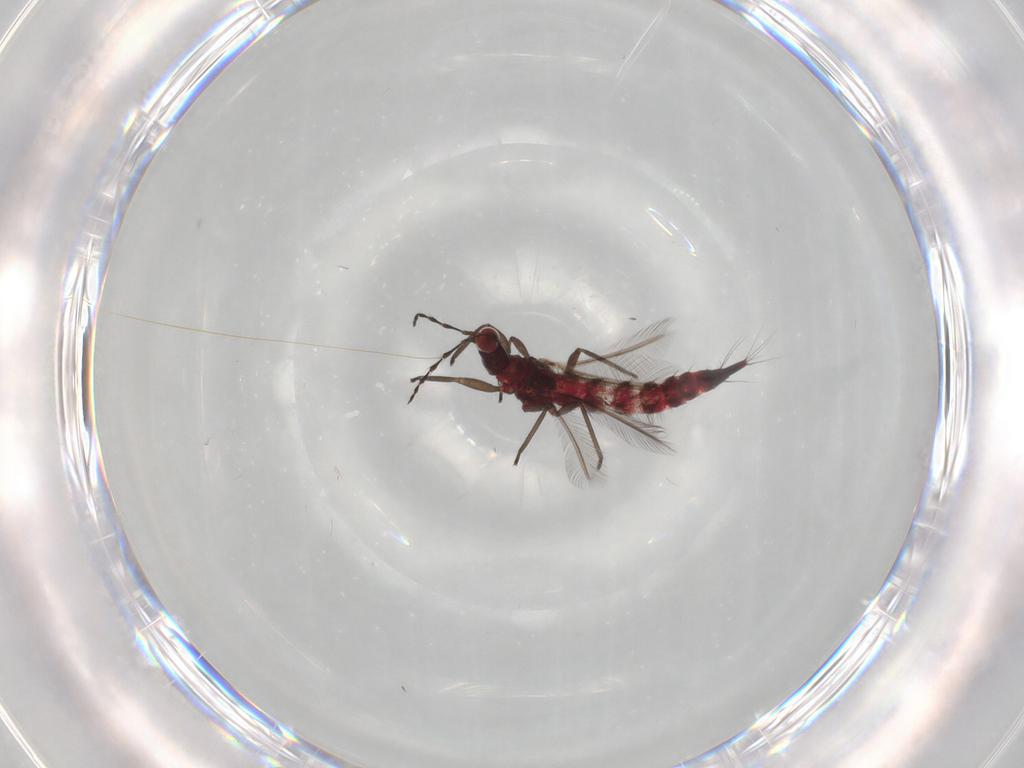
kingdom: Animalia
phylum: Arthropoda
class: Insecta
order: Thysanoptera
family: Phlaeothripidae
